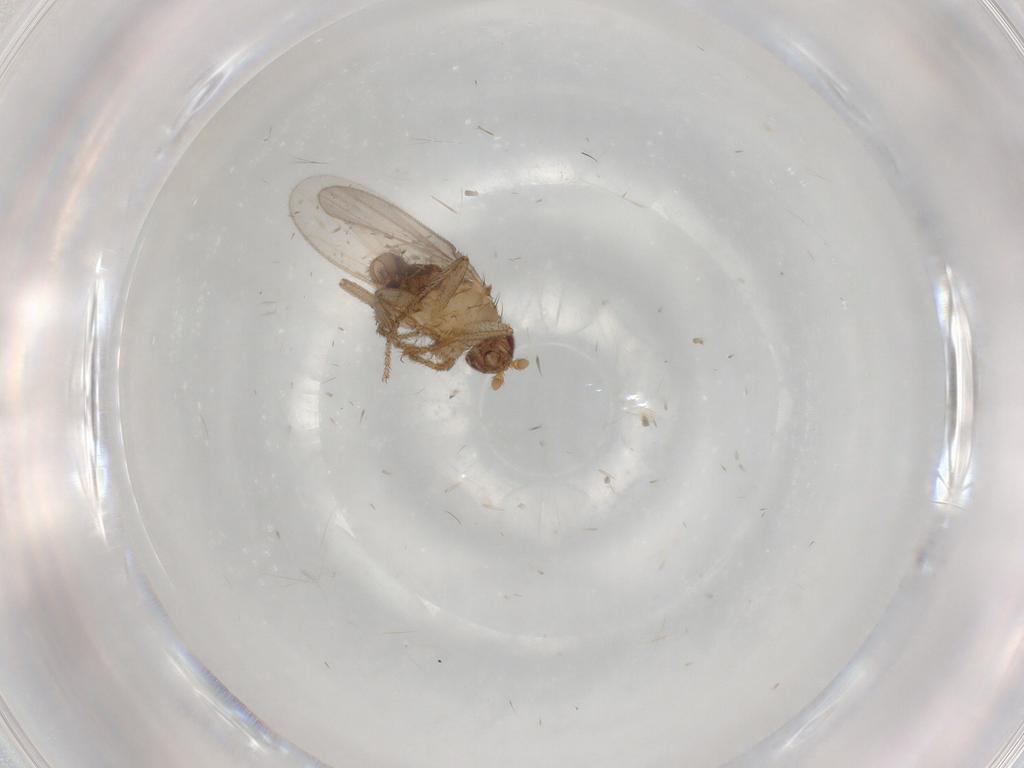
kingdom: Animalia
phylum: Arthropoda
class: Insecta
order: Diptera
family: Sphaeroceridae
